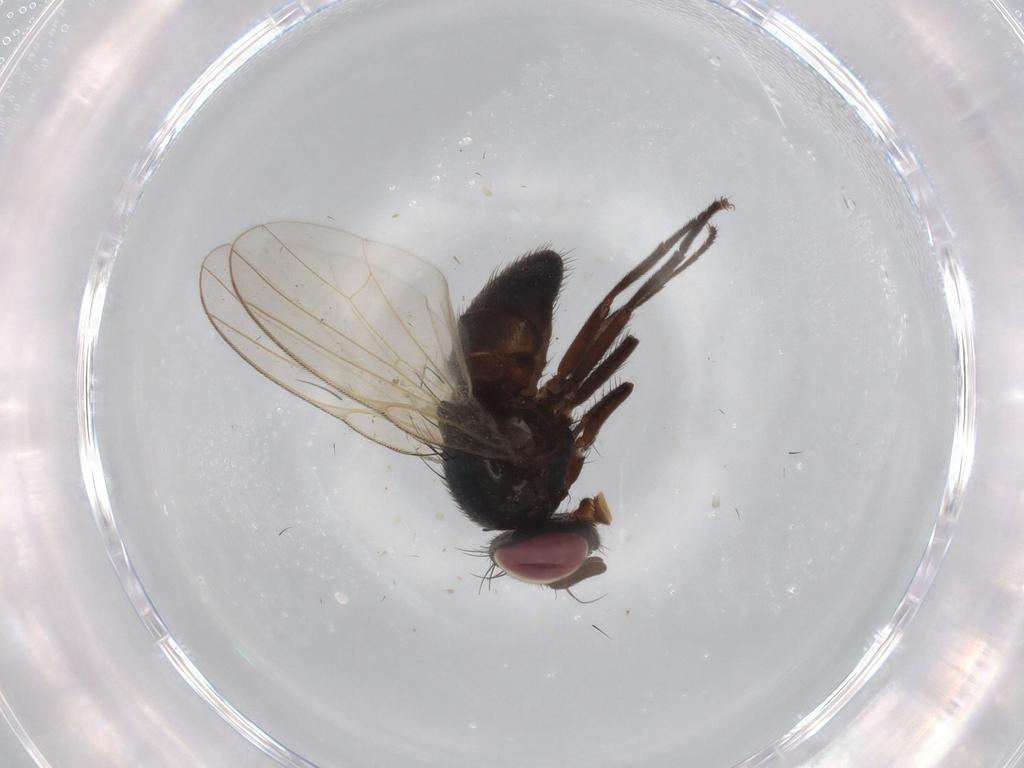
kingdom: Animalia
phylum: Arthropoda
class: Insecta
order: Diptera
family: Lonchaeidae
